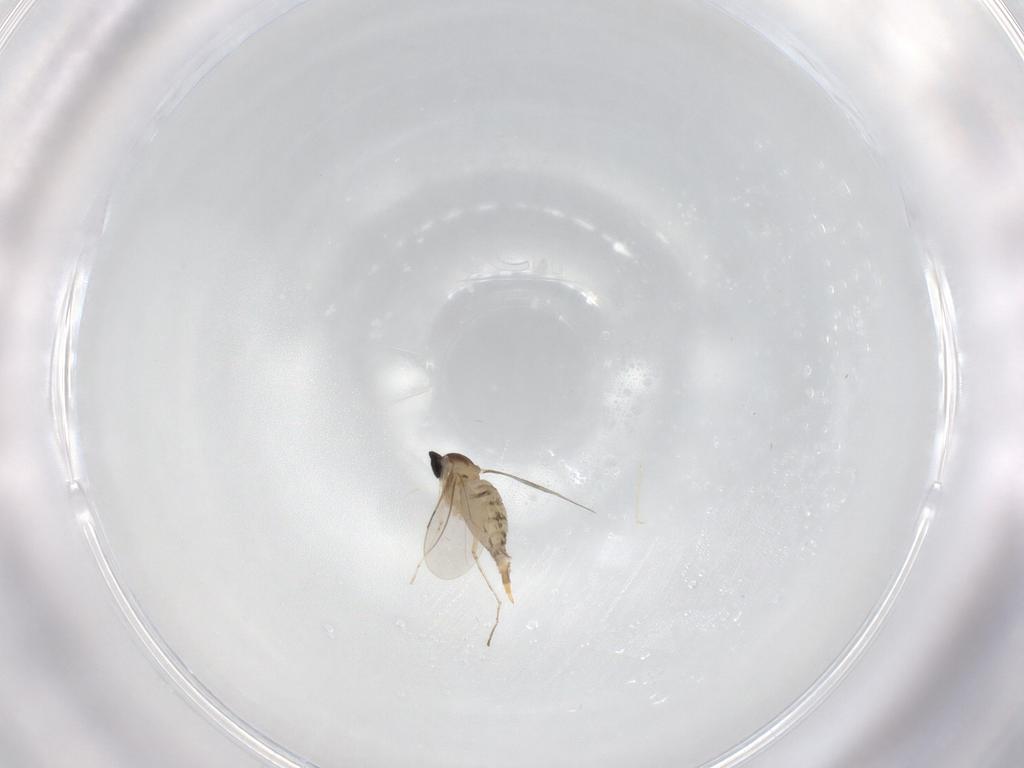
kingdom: Animalia
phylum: Arthropoda
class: Insecta
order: Diptera
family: Cecidomyiidae
